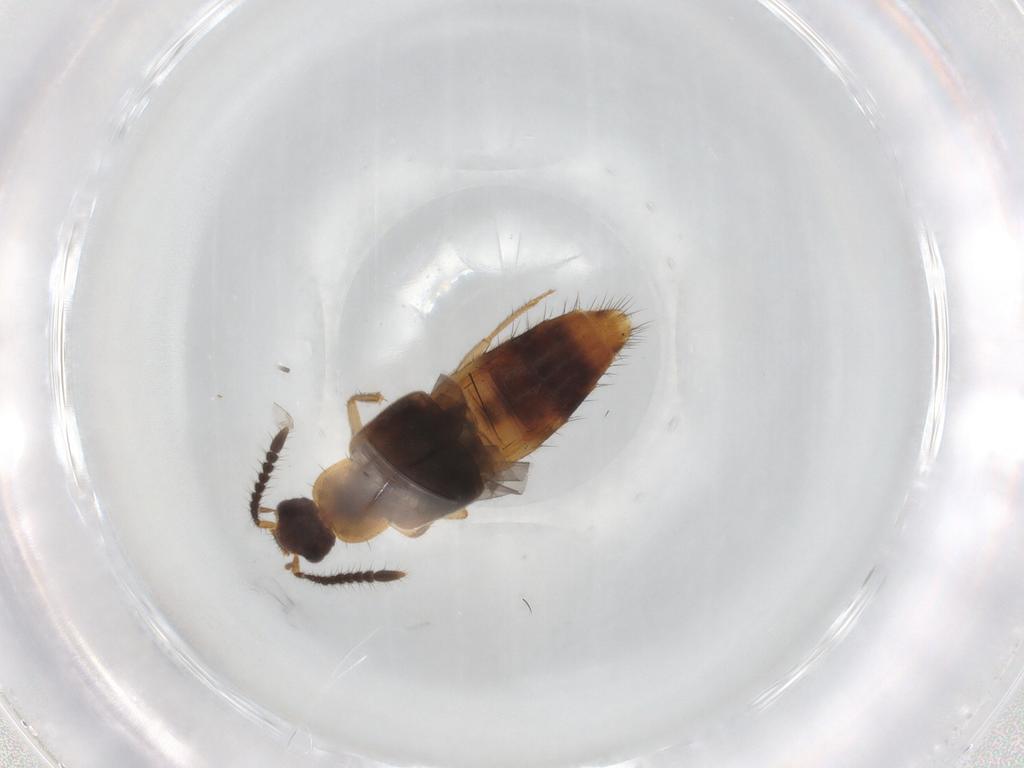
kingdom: Animalia
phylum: Arthropoda
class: Insecta
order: Coleoptera
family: Staphylinidae
